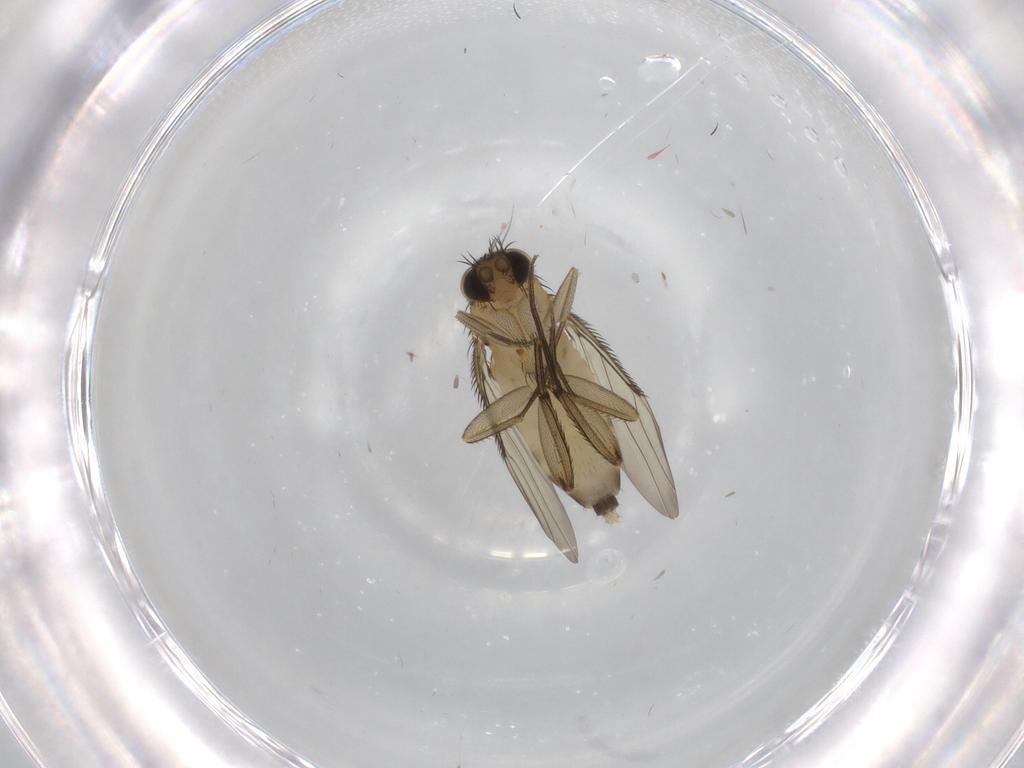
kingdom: Animalia
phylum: Arthropoda
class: Insecta
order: Diptera
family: Phoridae
